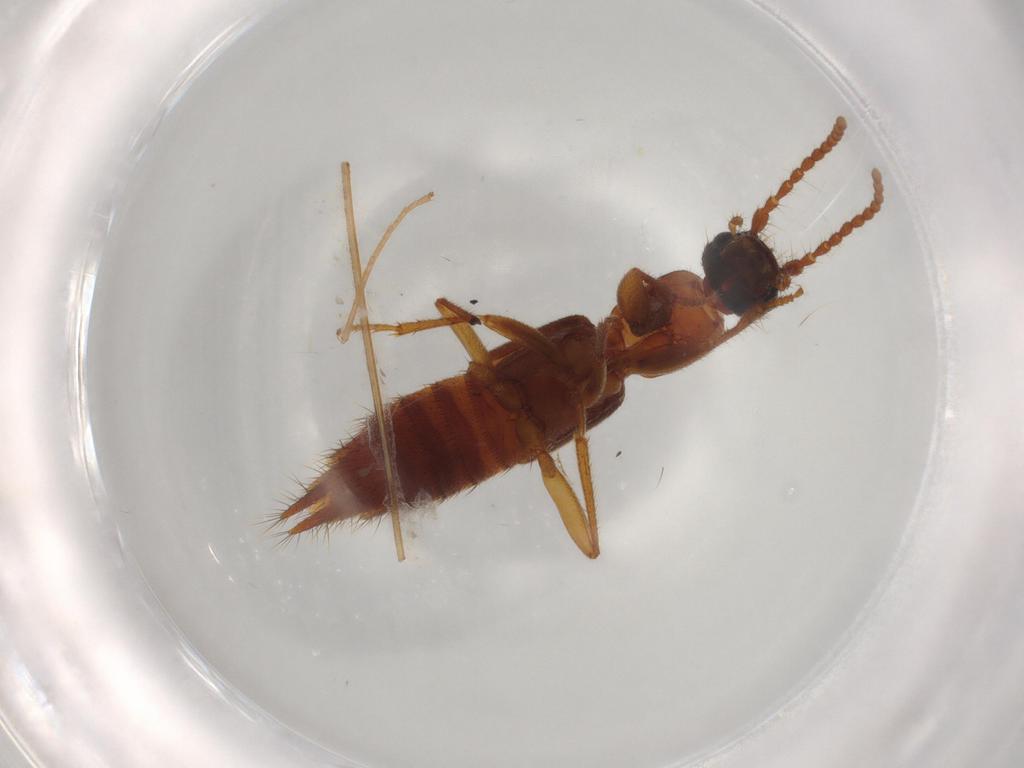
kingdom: Animalia
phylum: Arthropoda
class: Insecta
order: Coleoptera
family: Staphylinidae
